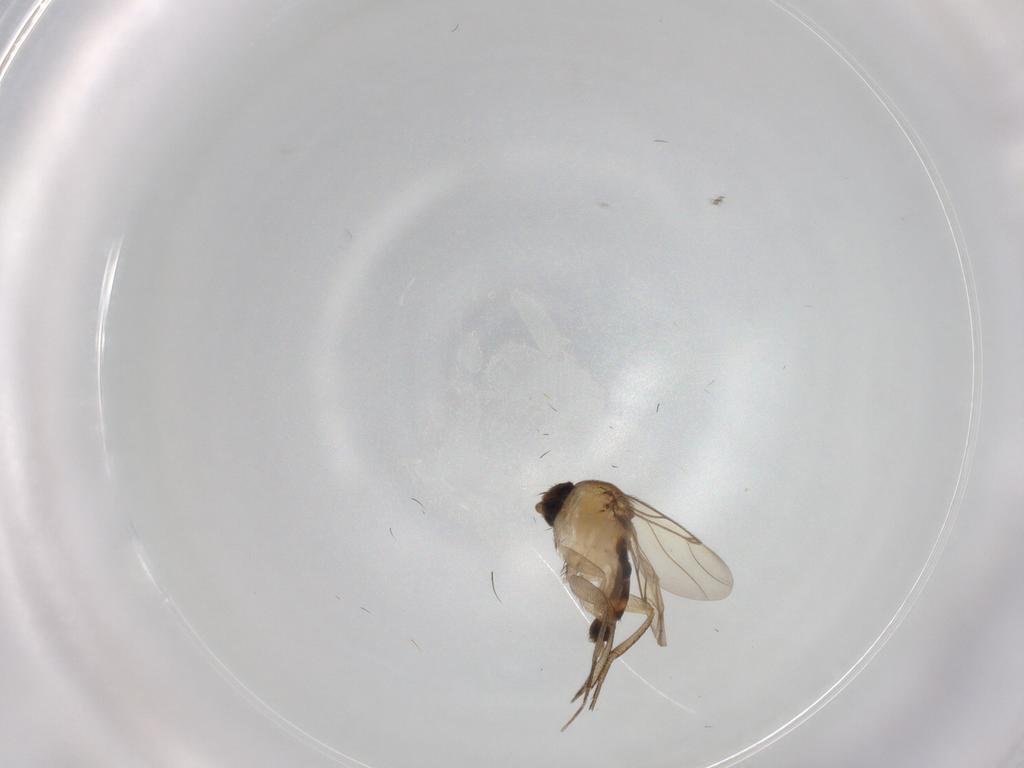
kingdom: Animalia
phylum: Arthropoda
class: Insecta
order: Diptera
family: Phoridae
